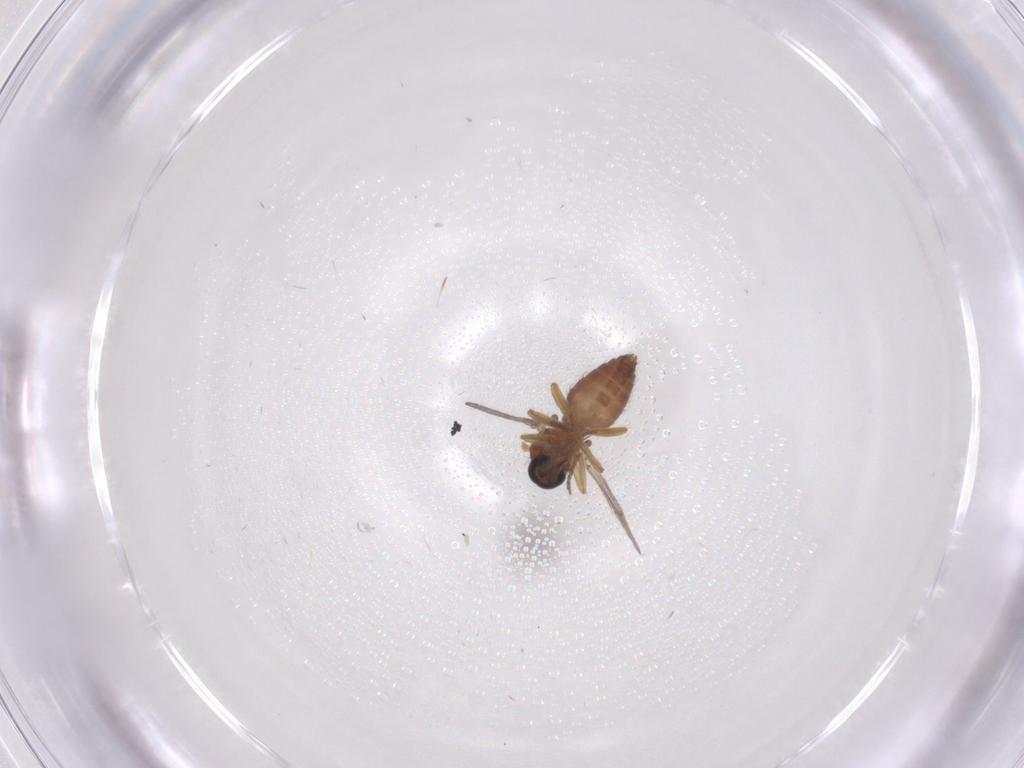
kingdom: Animalia
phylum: Arthropoda
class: Insecta
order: Diptera
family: Ceratopogonidae
